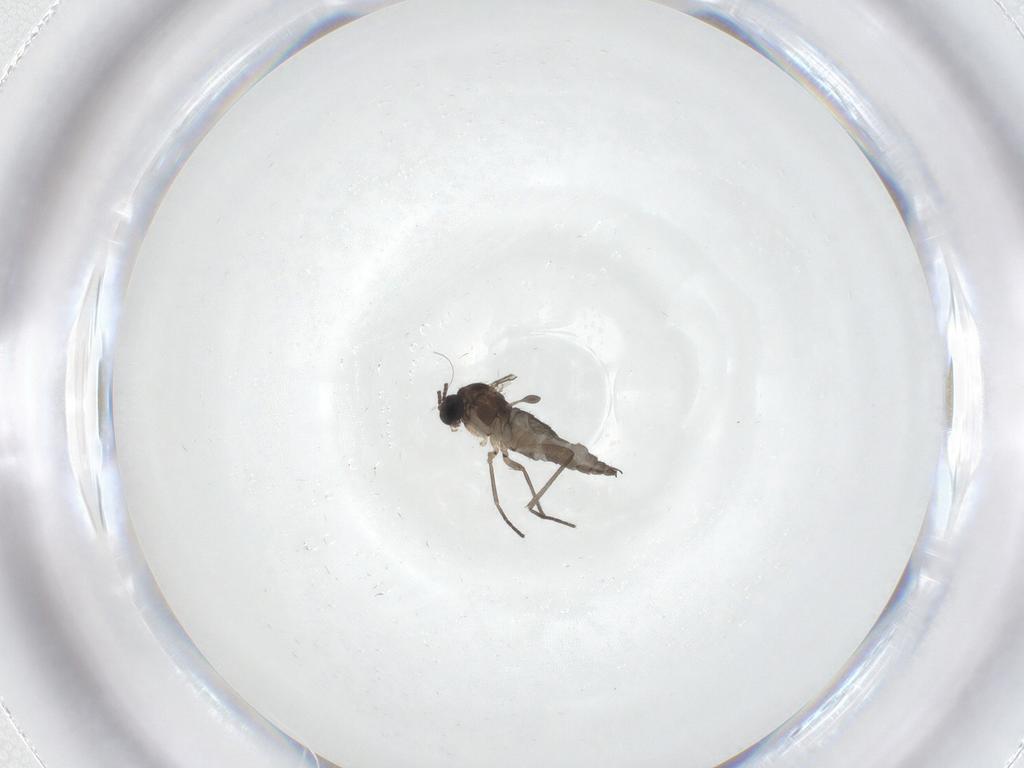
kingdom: Animalia
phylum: Arthropoda
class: Insecta
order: Diptera
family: Sciaridae
